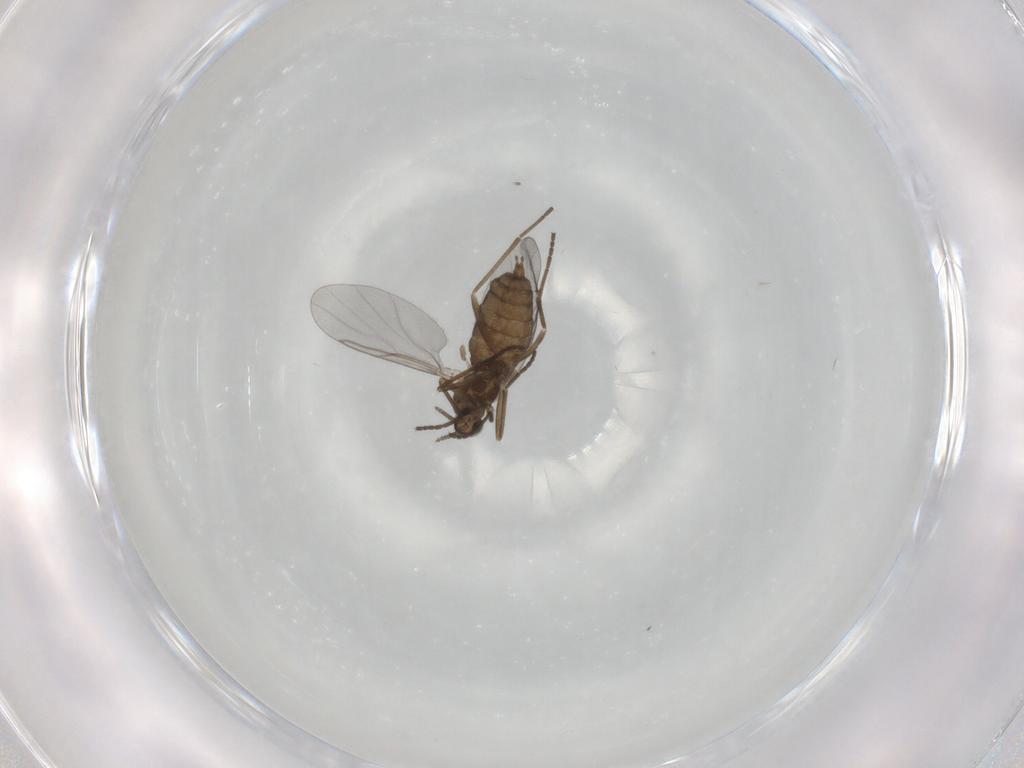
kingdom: Animalia
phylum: Arthropoda
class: Insecta
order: Diptera
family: Cecidomyiidae
